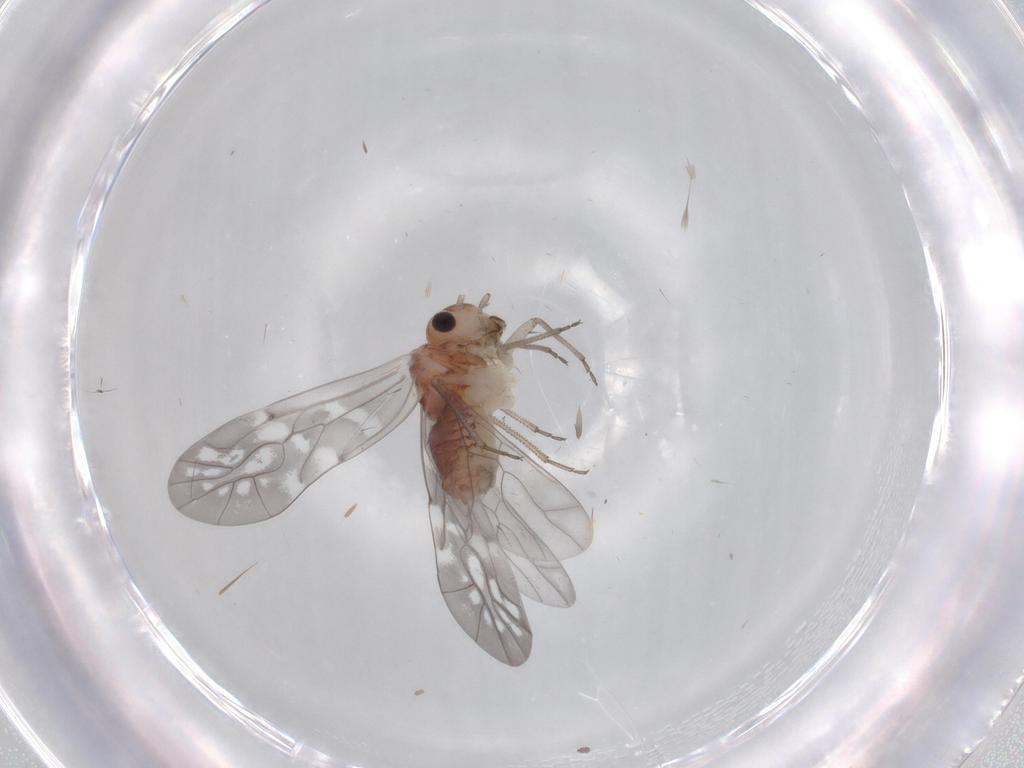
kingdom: Animalia
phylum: Arthropoda
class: Insecta
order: Psocodea
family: Ectopsocidae
